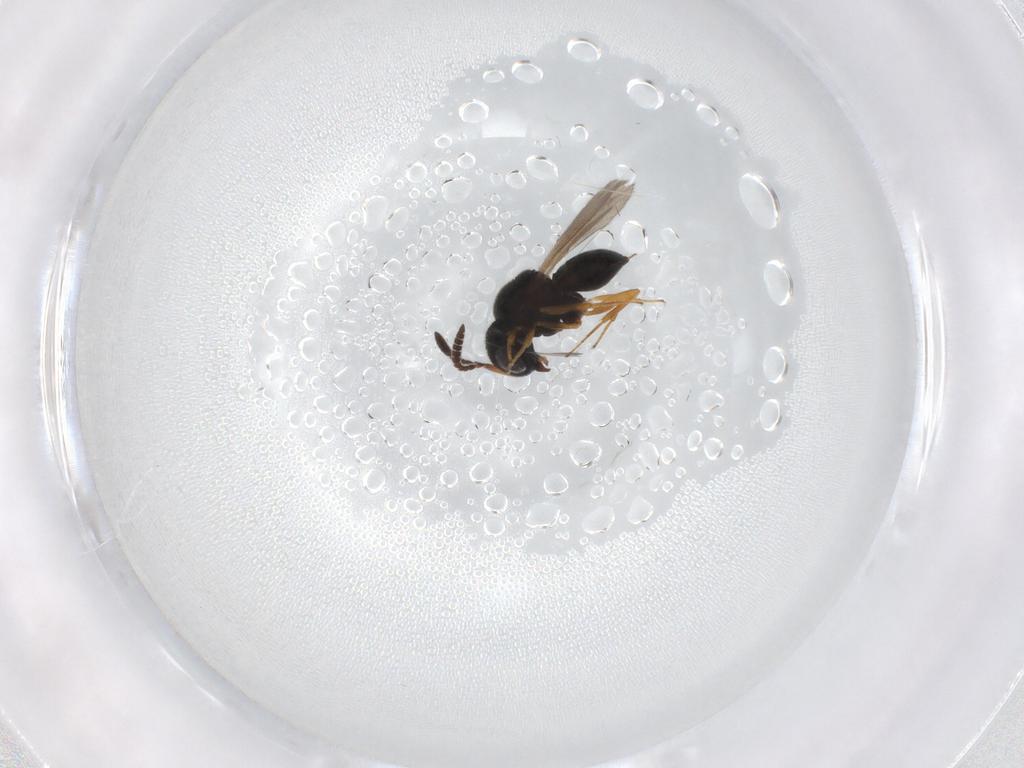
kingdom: Animalia
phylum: Arthropoda
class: Insecta
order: Hymenoptera
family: Scelionidae
